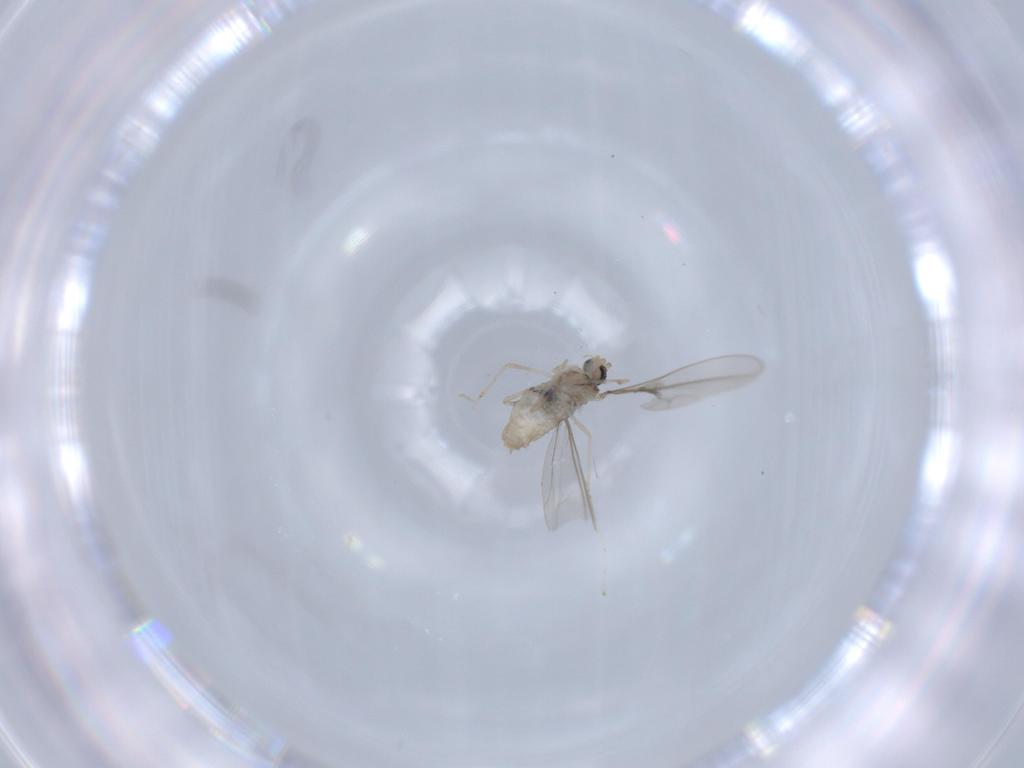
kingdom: Animalia
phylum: Arthropoda
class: Insecta
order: Diptera
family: Cecidomyiidae
